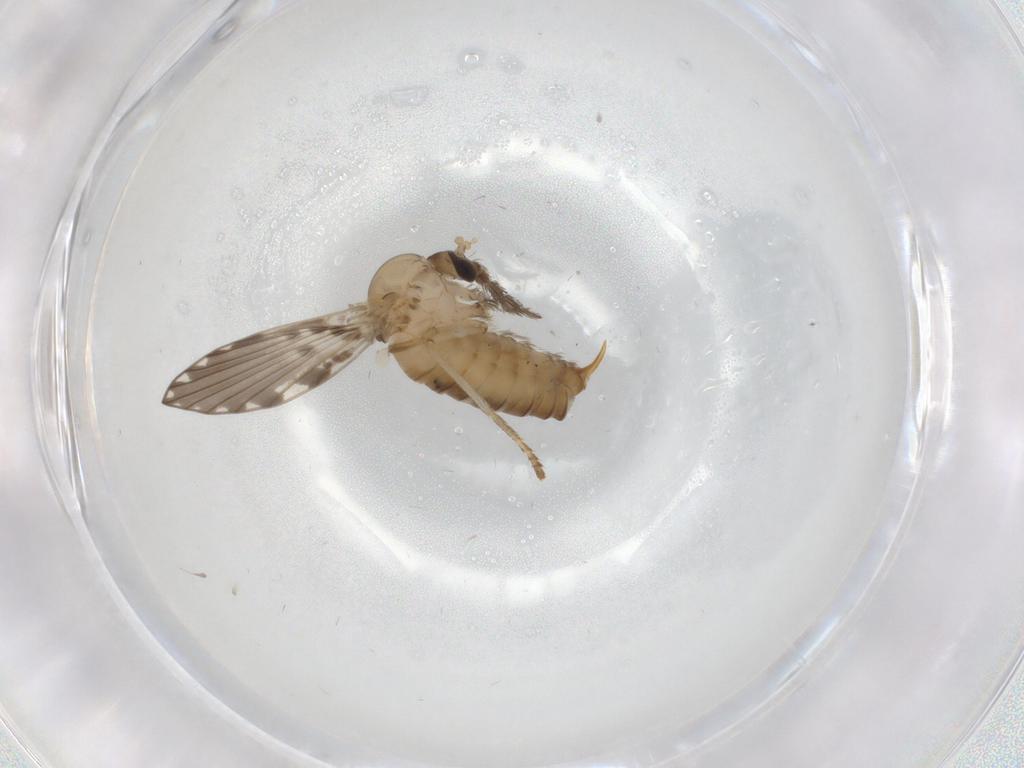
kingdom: Animalia
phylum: Arthropoda
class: Insecta
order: Diptera
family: Psychodidae
